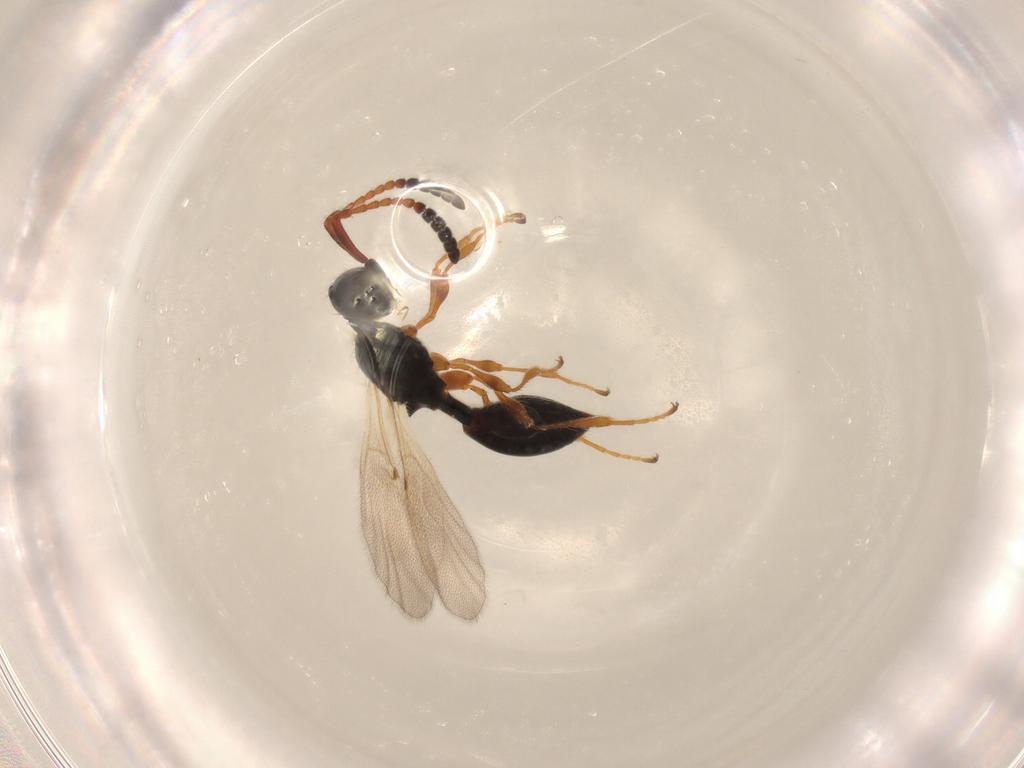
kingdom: Animalia
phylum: Arthropoda
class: Insecta
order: Hymenoptera
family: Diapriidae
